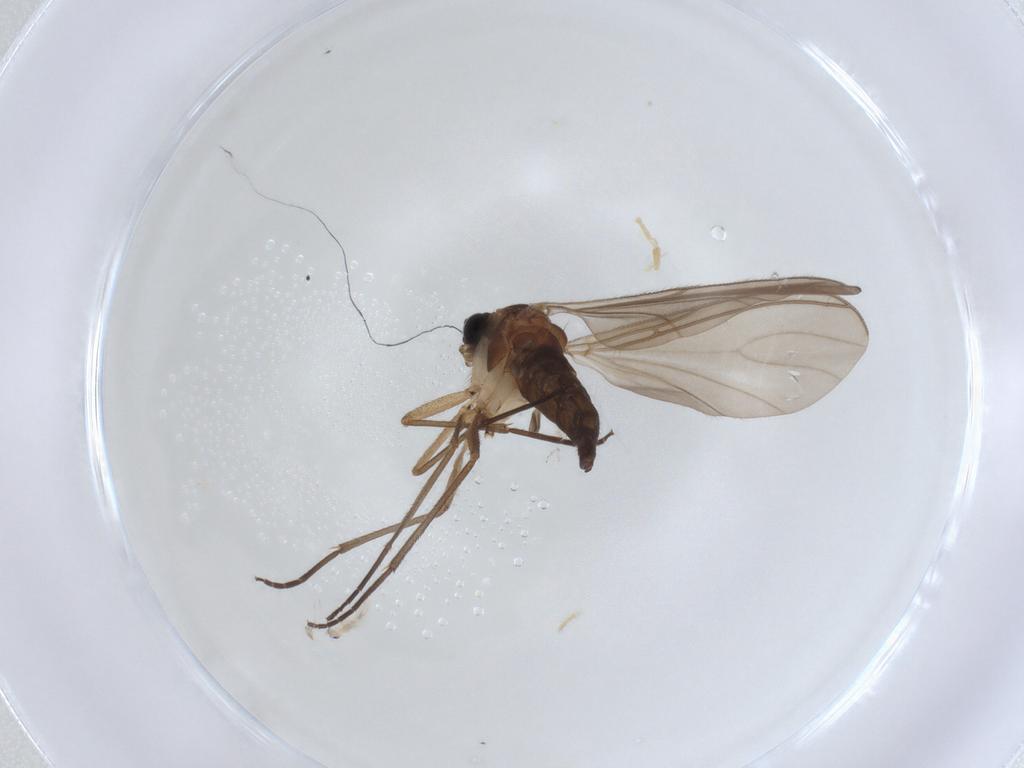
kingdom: Animalia
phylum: Arthropoda
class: Insecta
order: Diptera
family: Sciaridae
